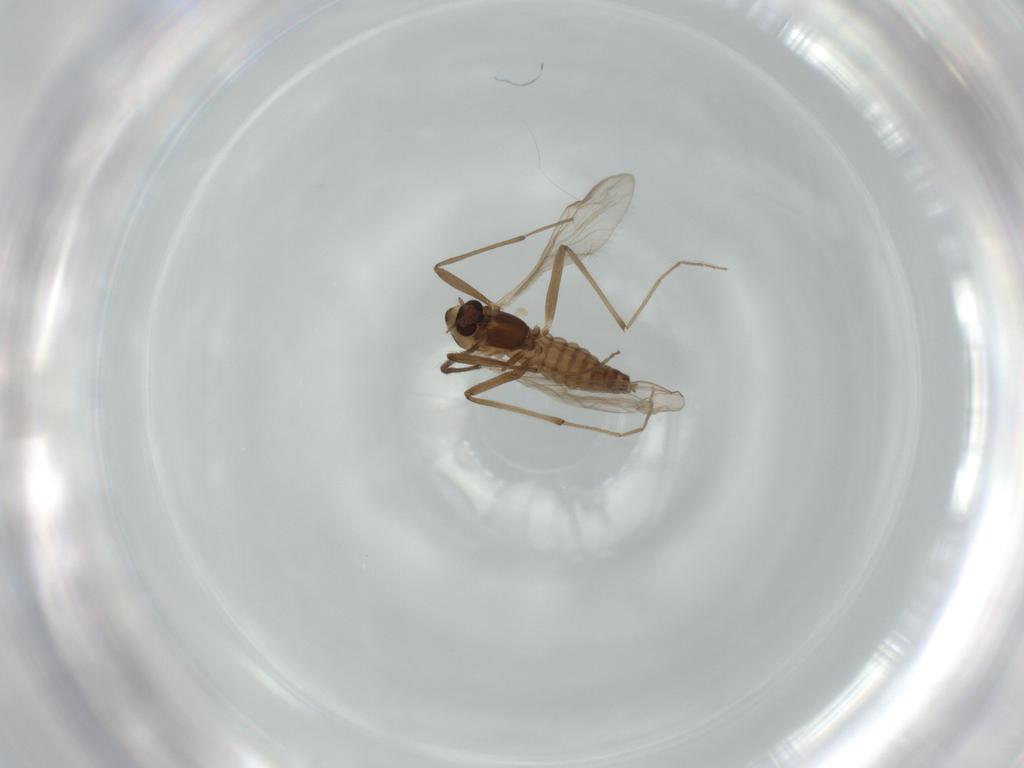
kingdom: Animalia
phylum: Arthropoda
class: Insecta
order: Diptera
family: Chironomidae
